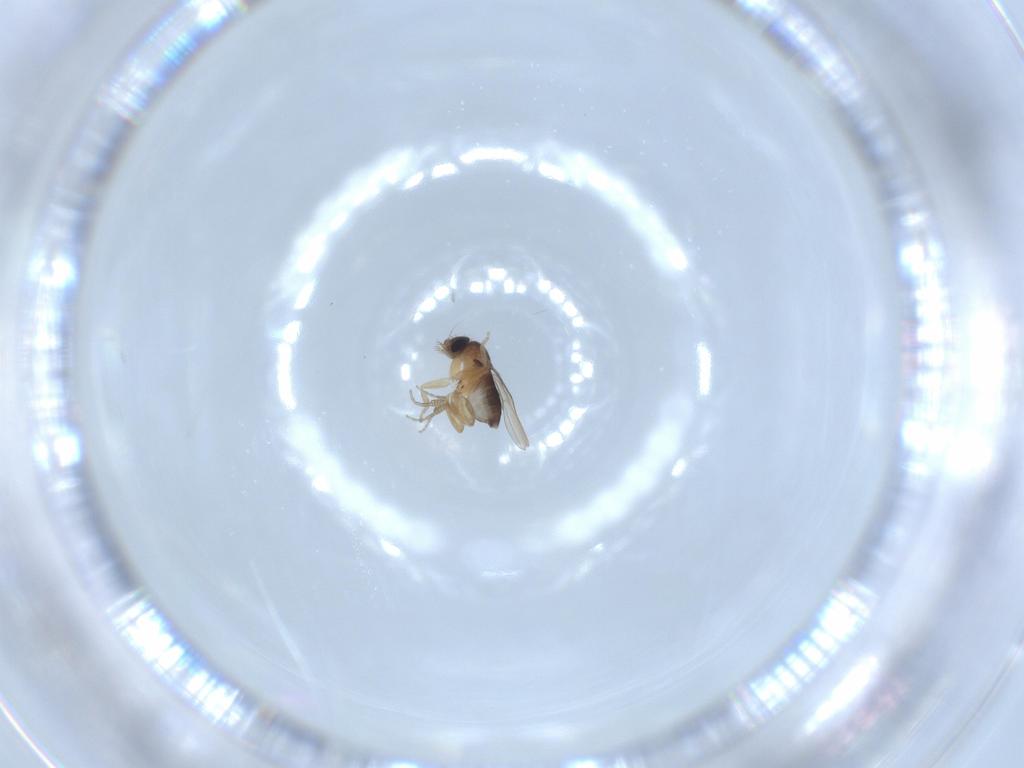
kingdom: Animalia
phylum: Arthropoda
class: Insecta
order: Diptera
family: Phoridae
